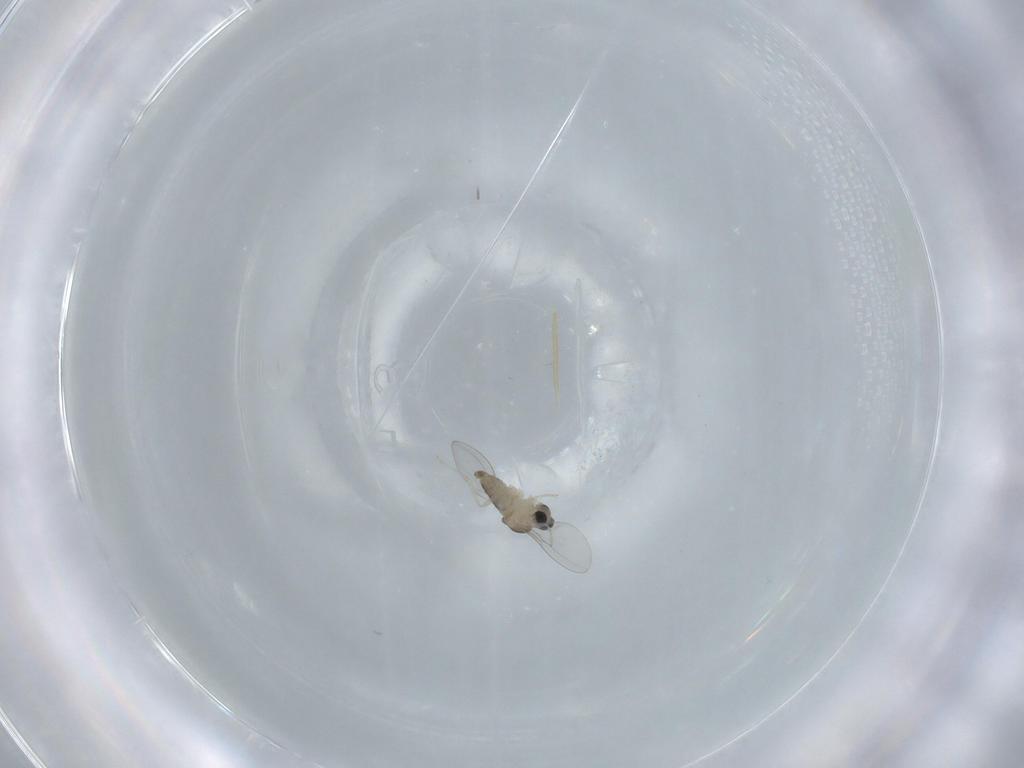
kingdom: Animalia
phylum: Arthropoda
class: Insecta
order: Diptera
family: Cecidomyiidae
